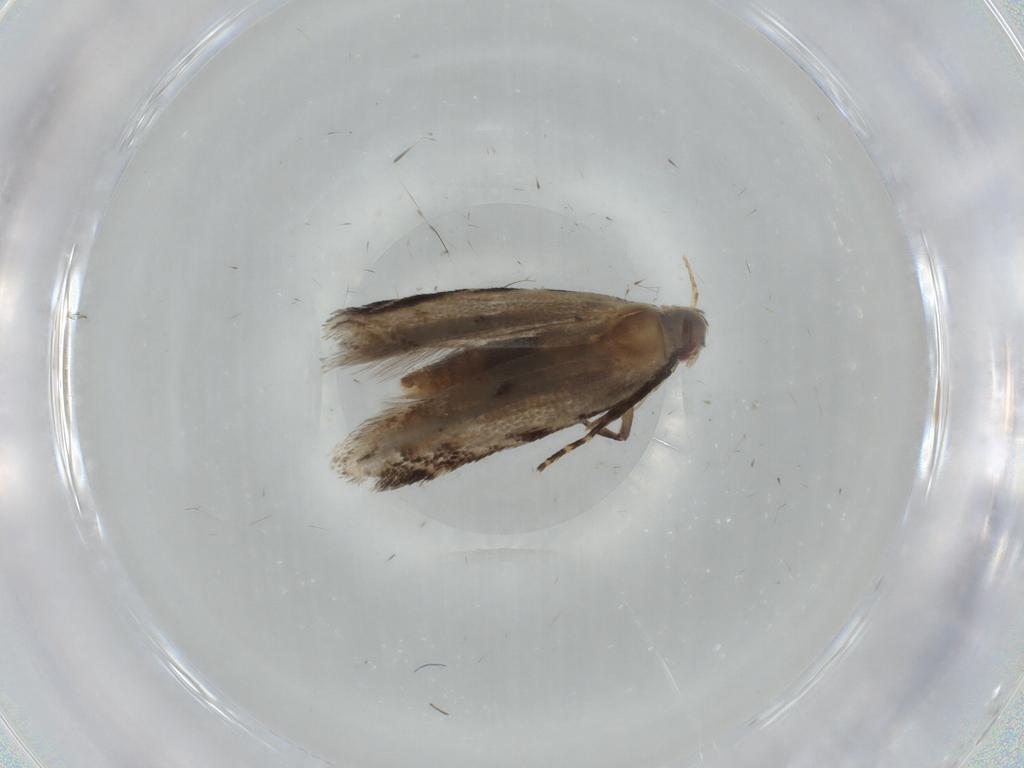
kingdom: Animalia
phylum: Arthropoda
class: Insecta
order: Lepidoptera
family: Gelechiidae
